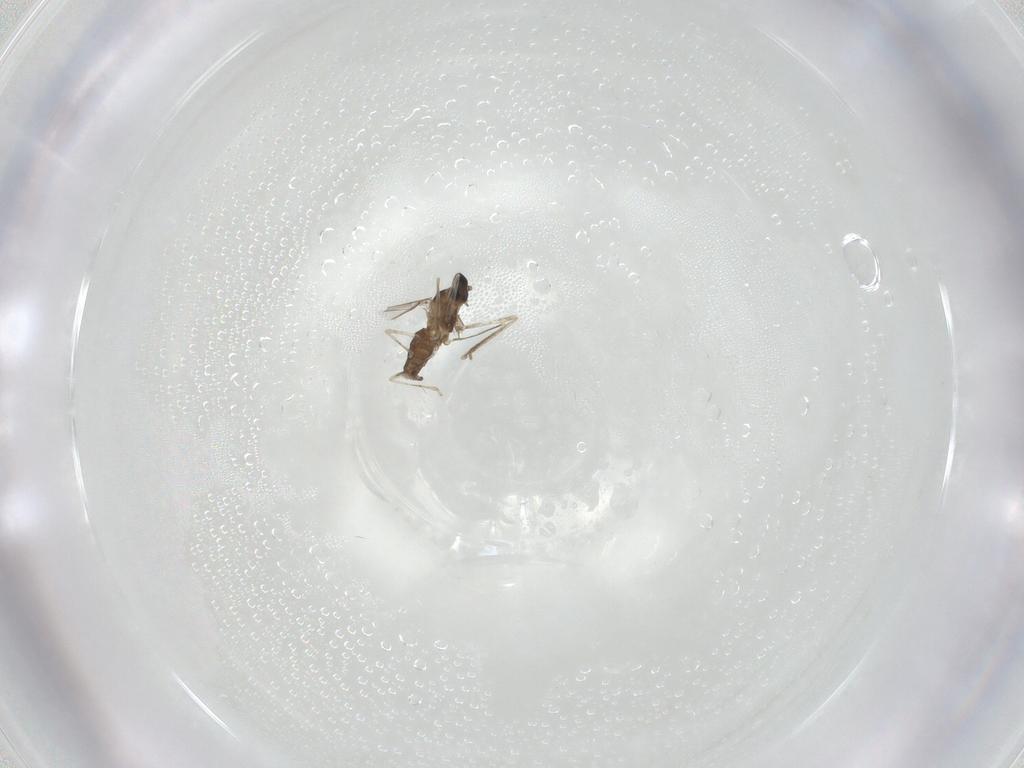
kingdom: Animalia
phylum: Arthropoda
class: Insecta
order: Diptera
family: Cecidomyiidae
